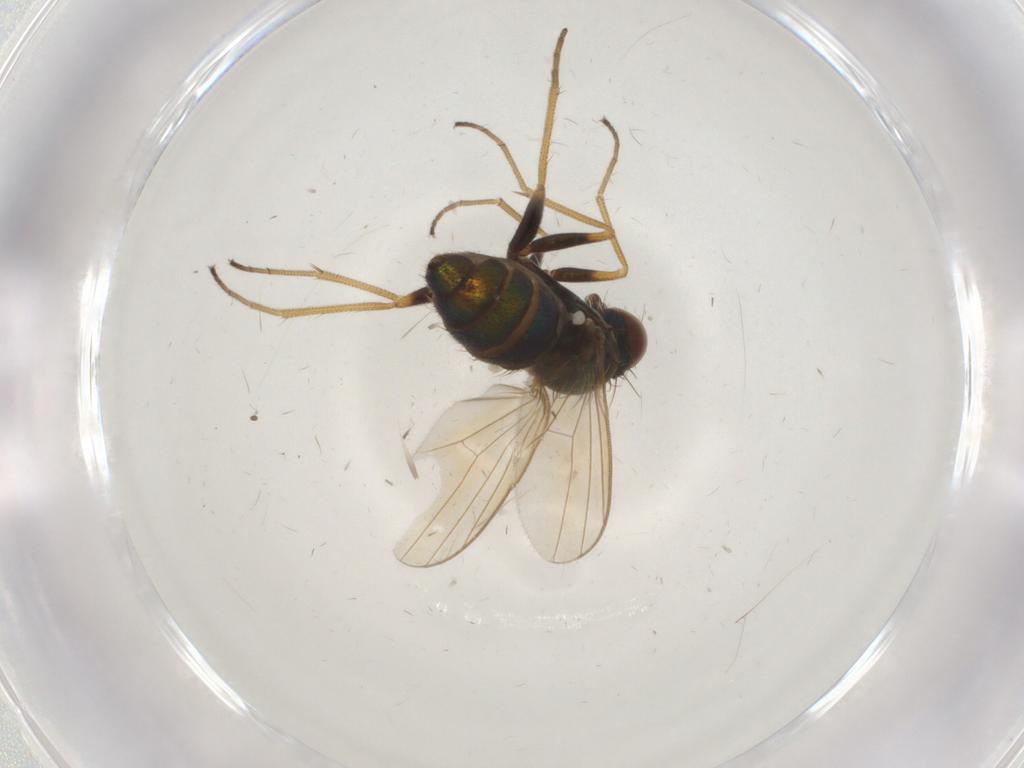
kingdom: Animalia
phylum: Arthropoda
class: Insecta
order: Diptera
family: Dolichopodidae
